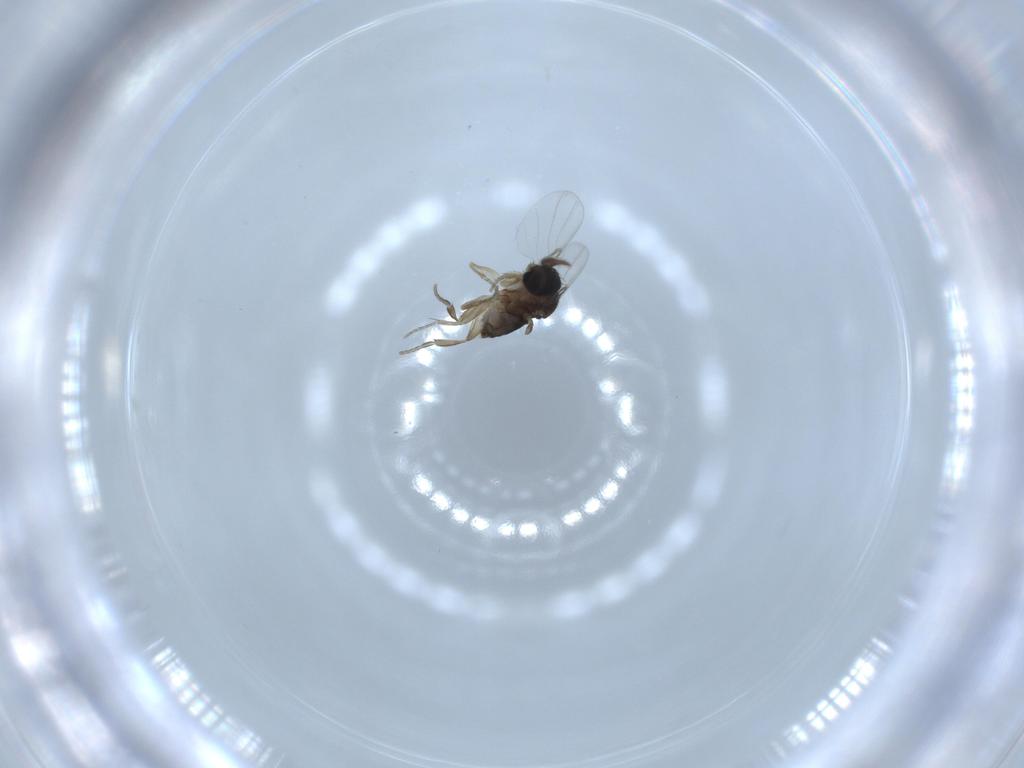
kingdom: Animalia
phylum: Arthropoda
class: Insecta
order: Diptera
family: Phoridae
